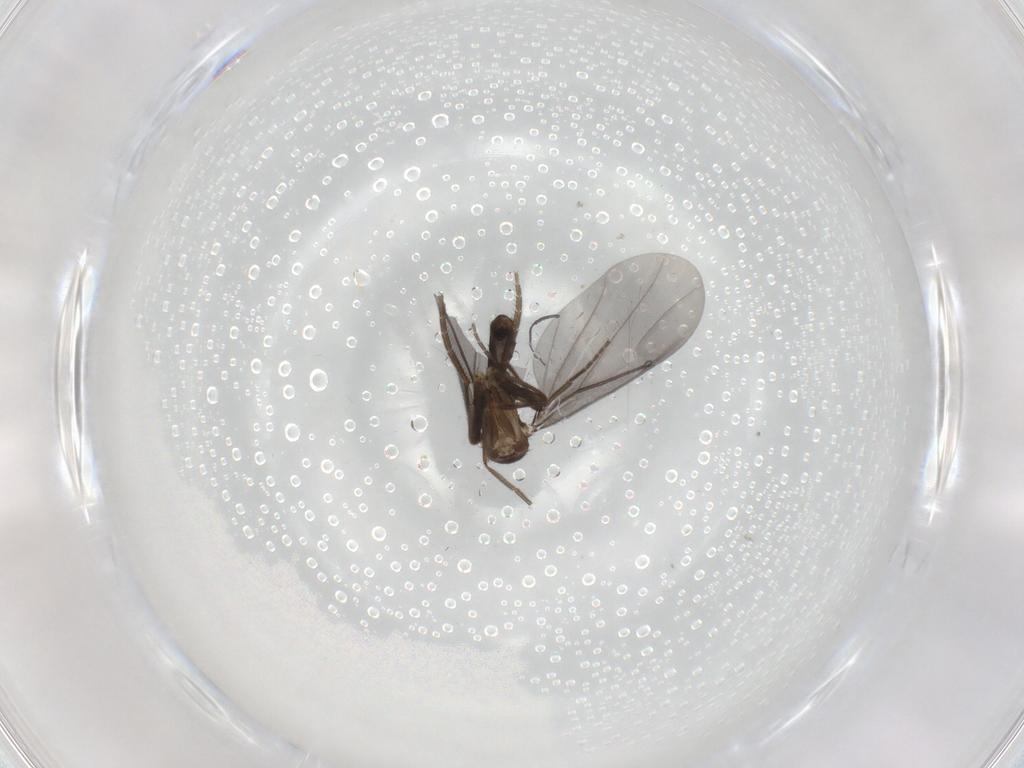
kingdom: Animalia
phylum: Arthropoda
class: Insecta
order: Diptera
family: Phoridae
